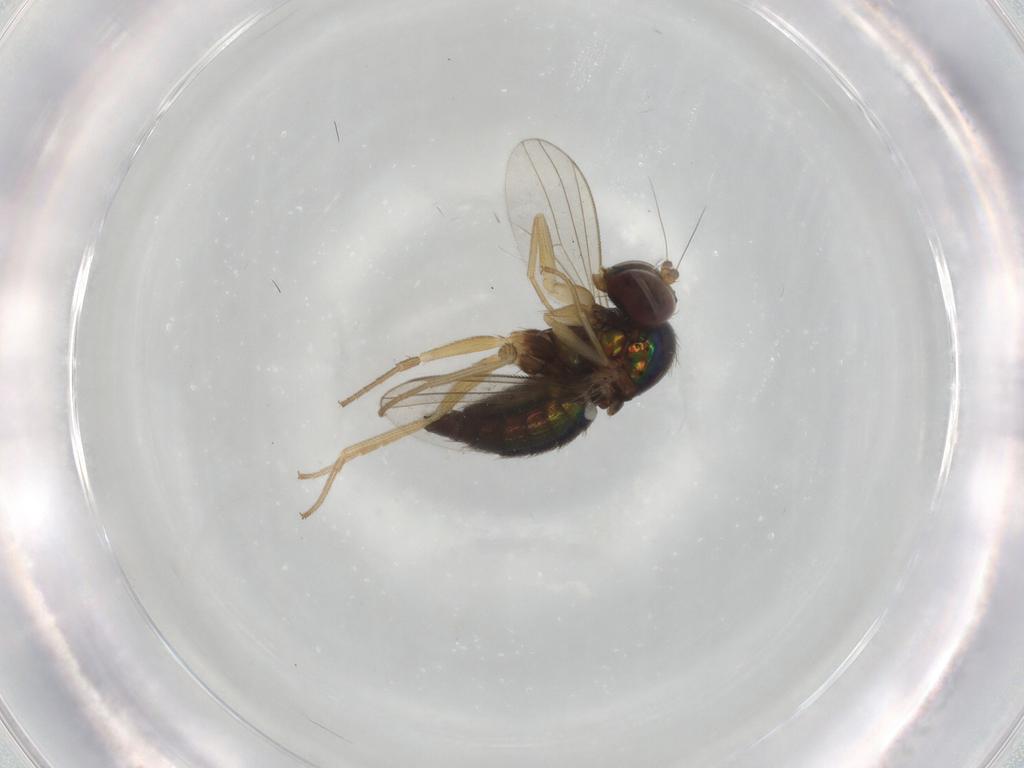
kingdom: Animalia
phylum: Arthropoda
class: Insecta
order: Diptera
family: Dolichopodidae
